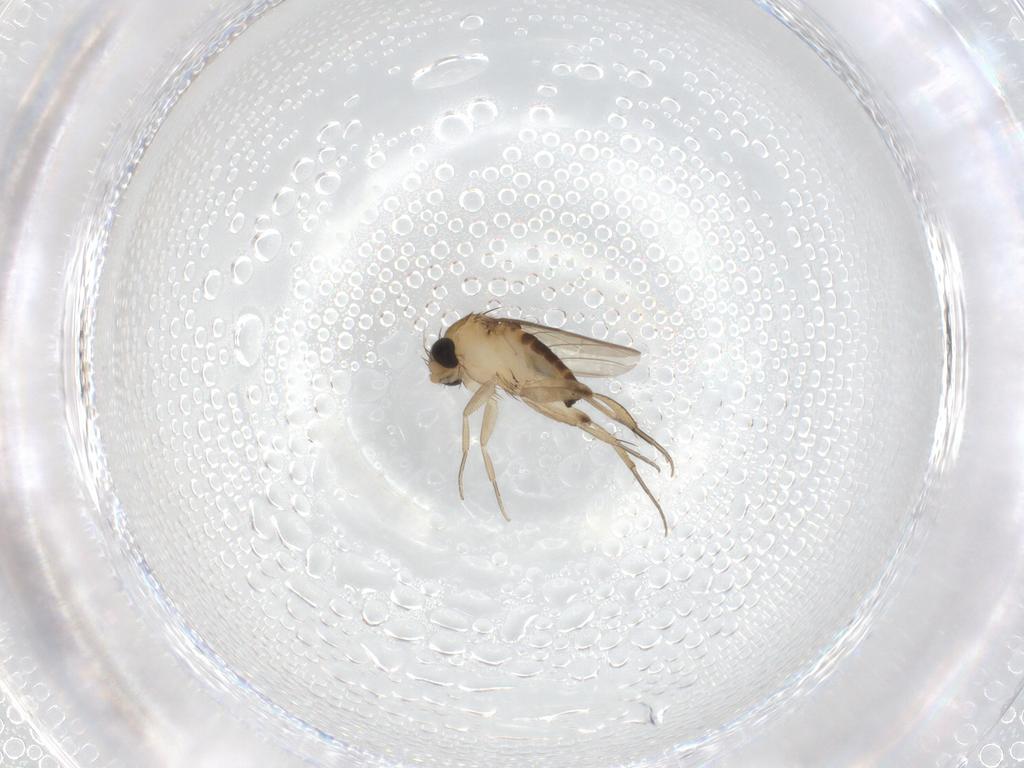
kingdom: Animalia
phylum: Arthropoda
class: Insecta
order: Diptera
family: Phoridae
